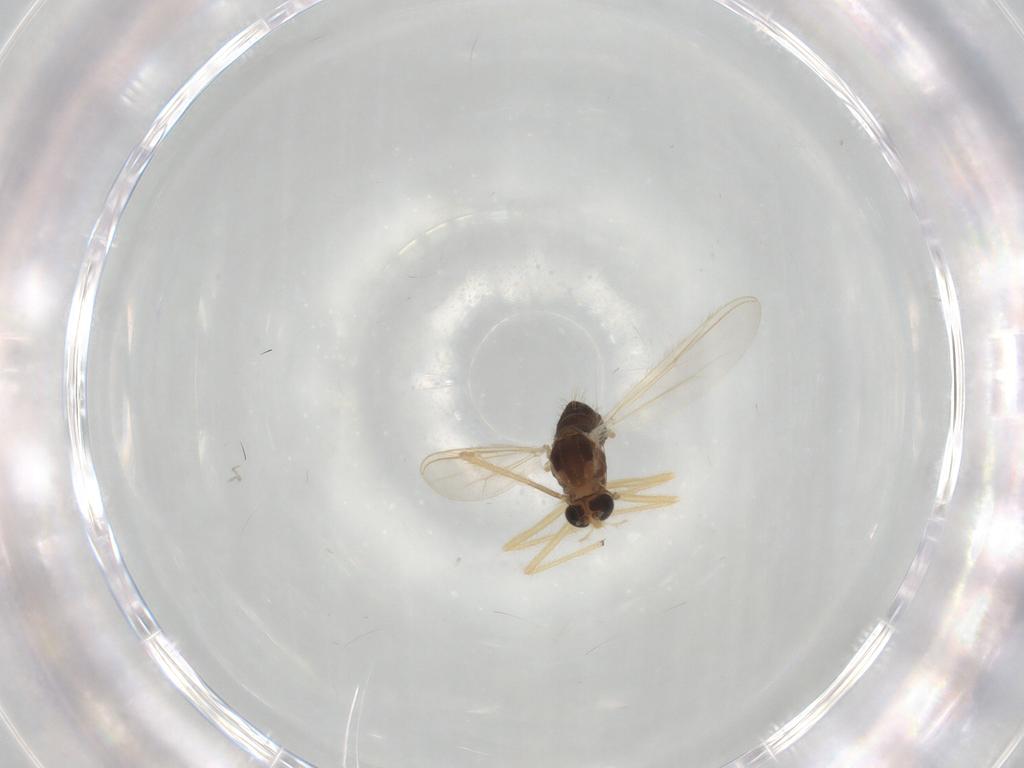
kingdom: Animalia
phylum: Arthropoda
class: Insecta
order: Diptera
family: Chironomidae
